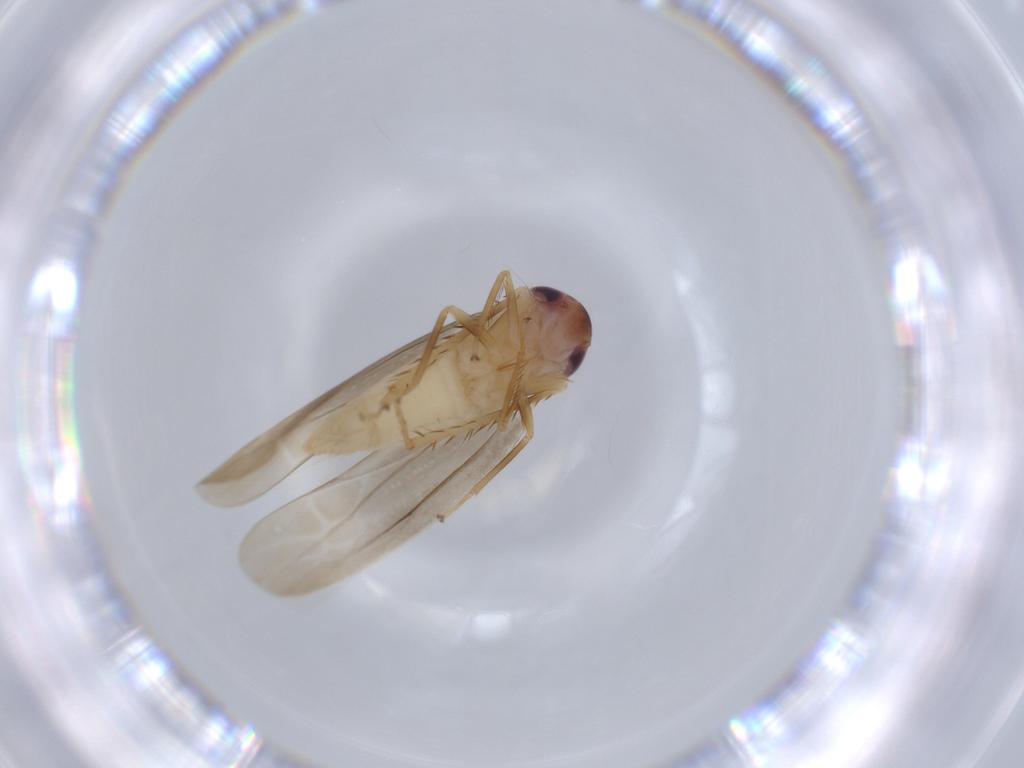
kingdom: Animalia
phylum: Arthropoda
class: Insecta
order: Hemiptera
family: Cicadellidae
